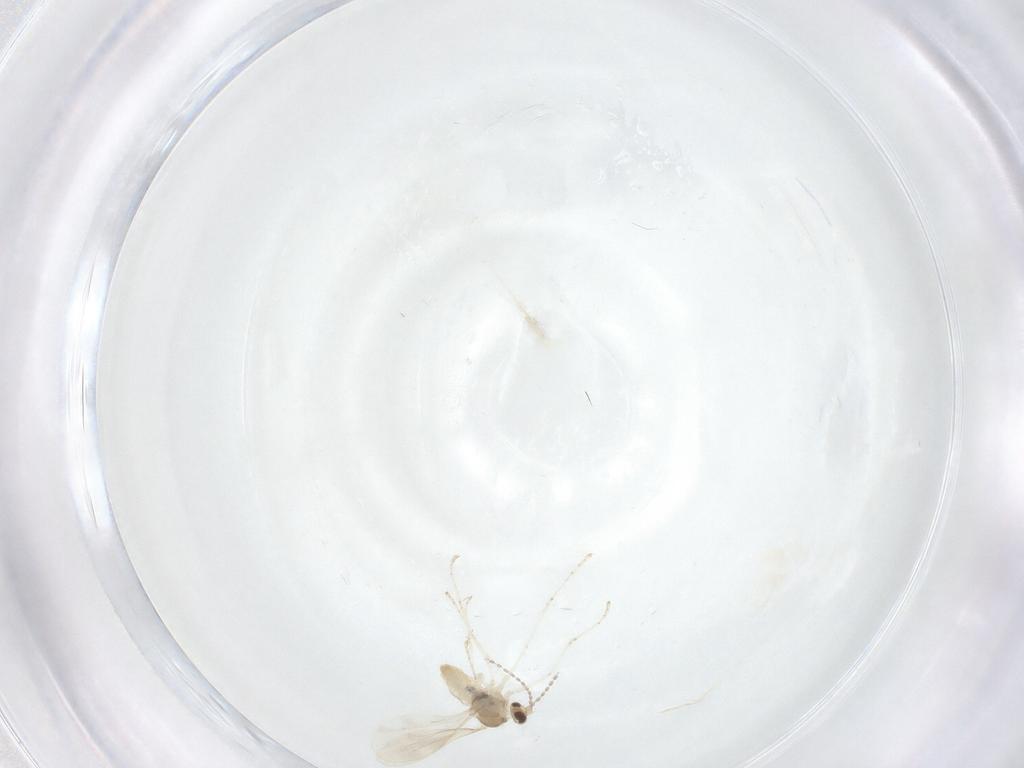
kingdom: Animalia
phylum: Arthropoda
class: Insecta
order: Diptera
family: Cecidomyiidae
